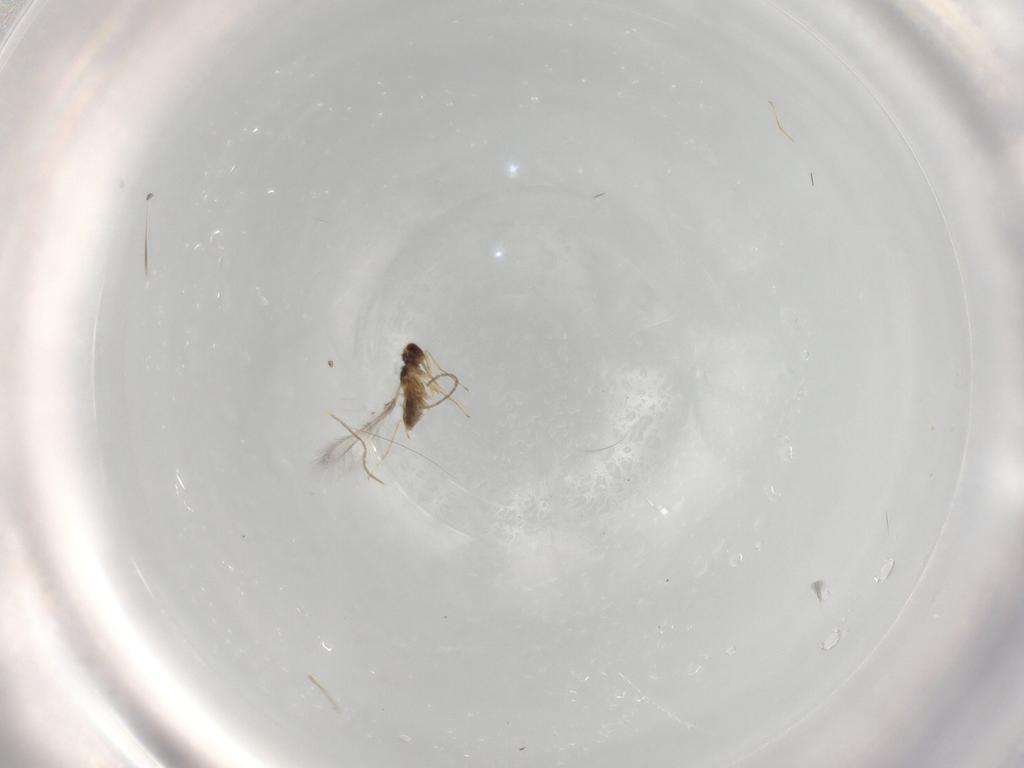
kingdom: Animalia
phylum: Arthropoda
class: Insecta
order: Hymenoptera
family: Mymaridae
